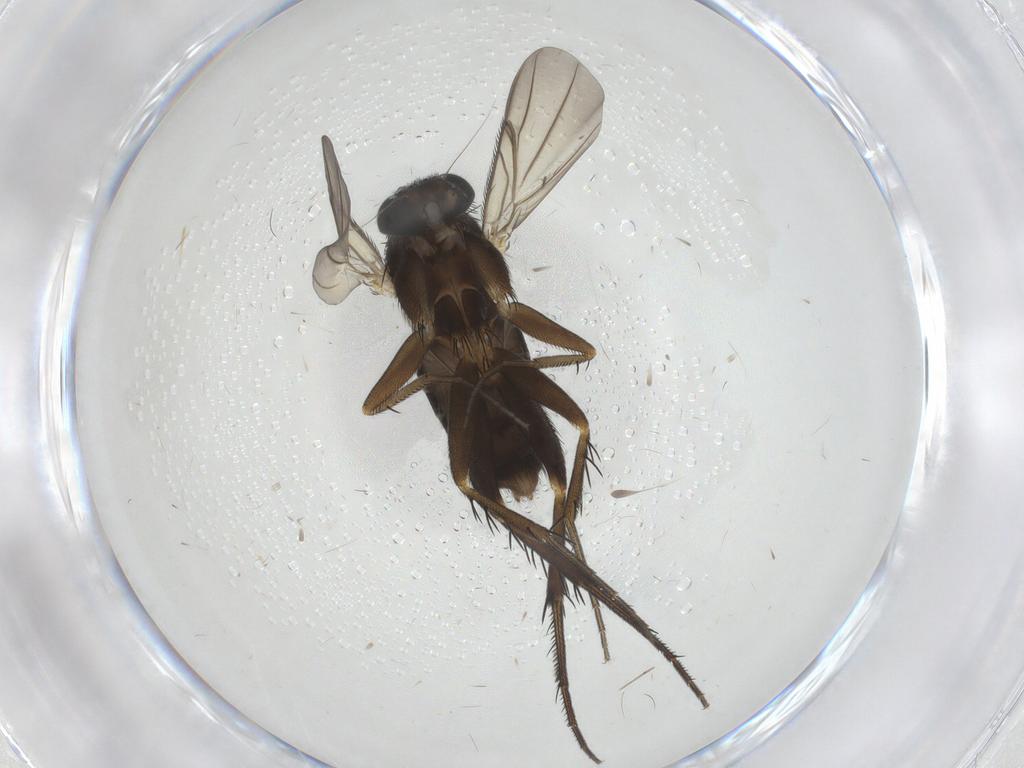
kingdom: Animalia
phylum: Arthropoda
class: Insecta
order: Diptera
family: Phoridae
